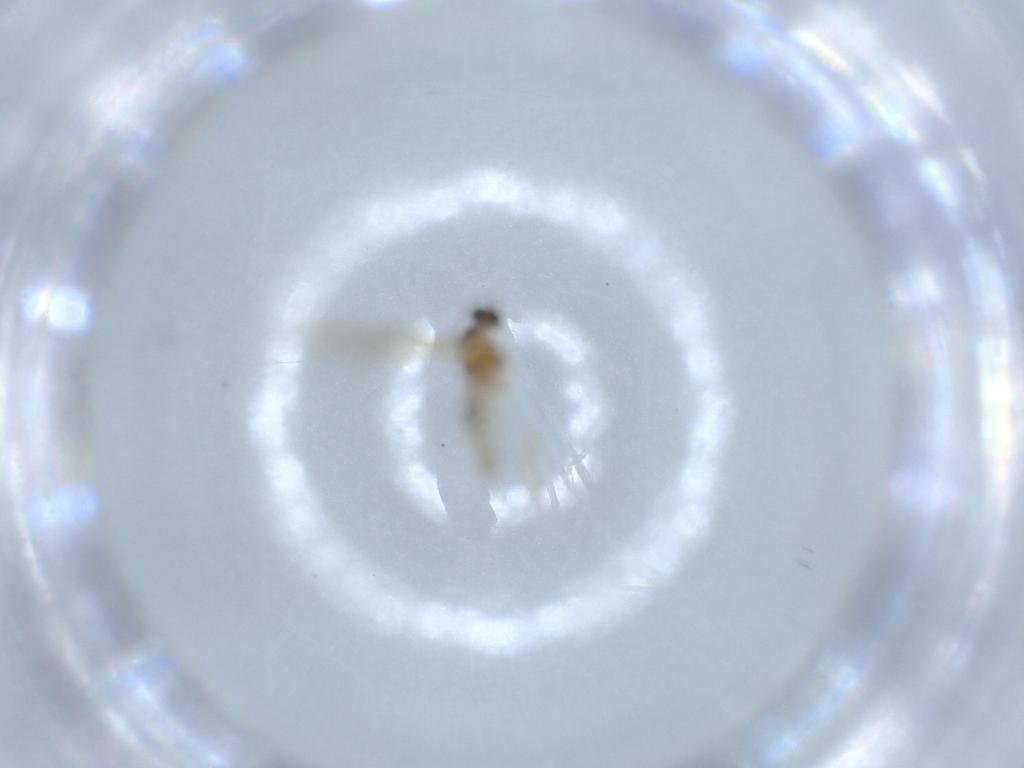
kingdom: Animalia
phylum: Arthropoda
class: Insecta
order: Diptera
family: Cecidomyiidae
